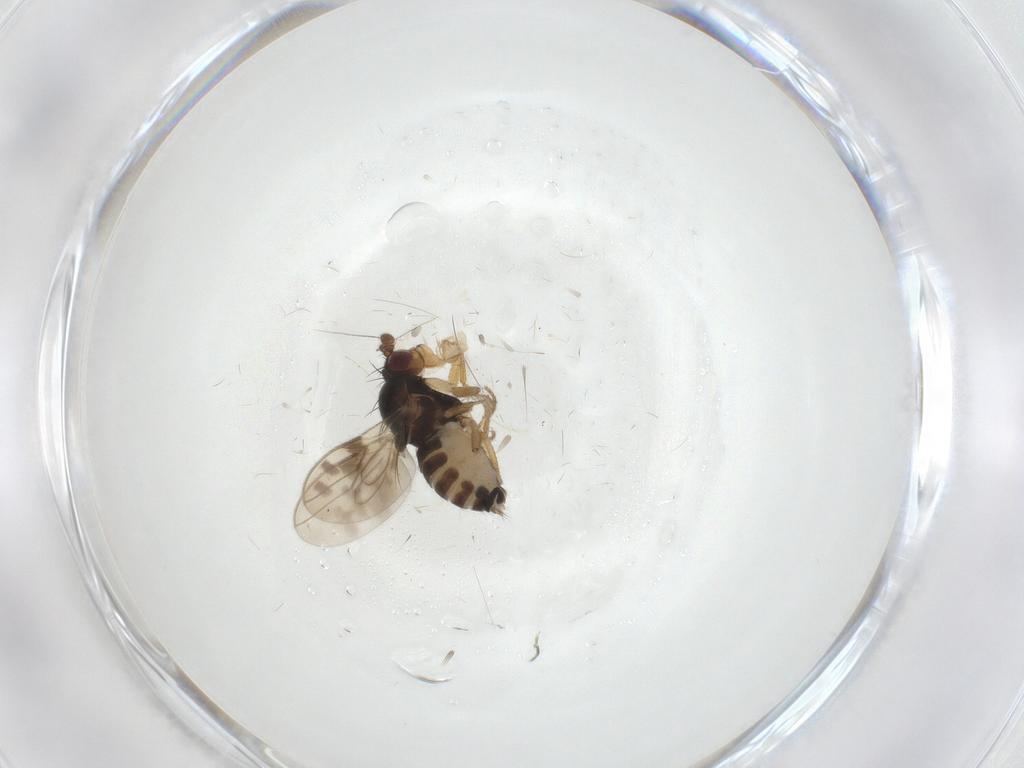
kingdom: Animalia
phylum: Arthropoda
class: Insecta
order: Diptera
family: Sphaeroceridae
